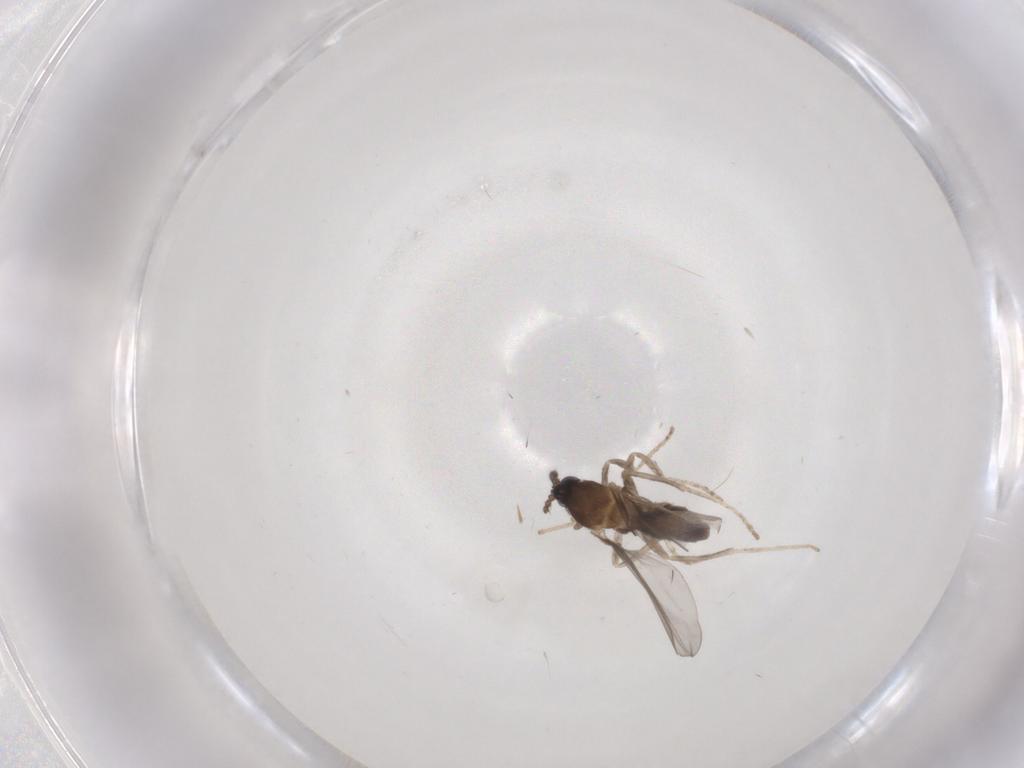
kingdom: Animalia
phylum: Arthropoda
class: Insecta
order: Diptera
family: Cecidomyiidae
